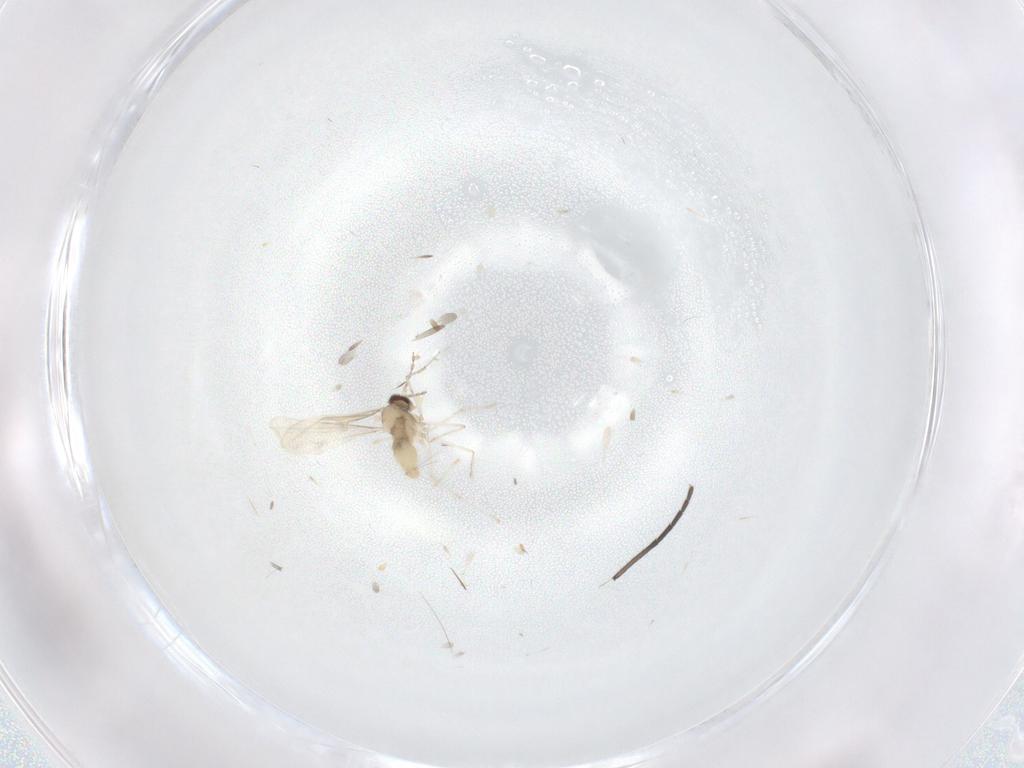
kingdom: Animalia
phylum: Arthropoda
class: Insecta
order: Diptera
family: Sciaridae
